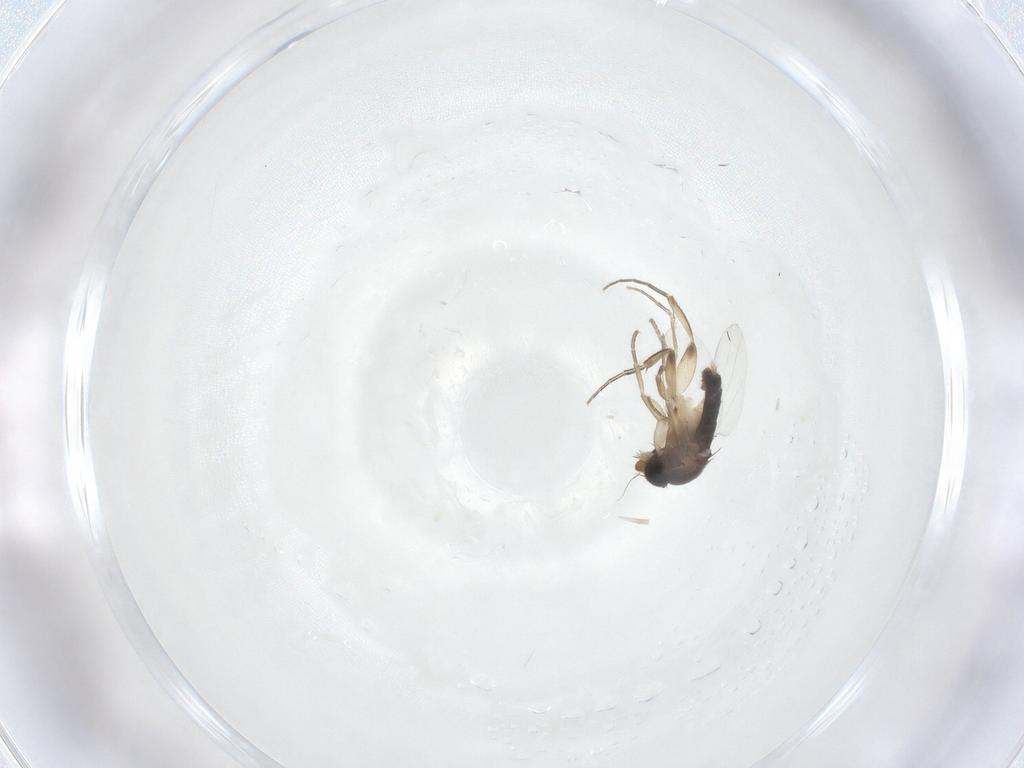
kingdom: Animalia
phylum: Arthropoda
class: Insecta
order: Diptera
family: Phoridae
